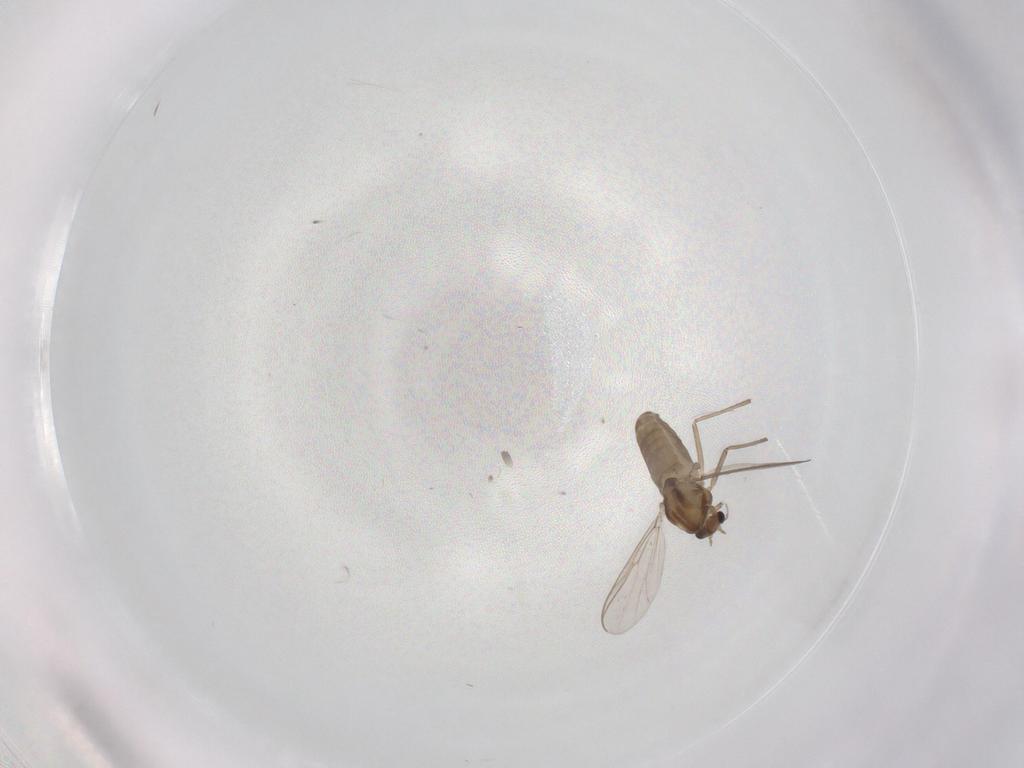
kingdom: Animalia
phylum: Arthropoda
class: Insecta
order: Diptera
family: Chironomidae
